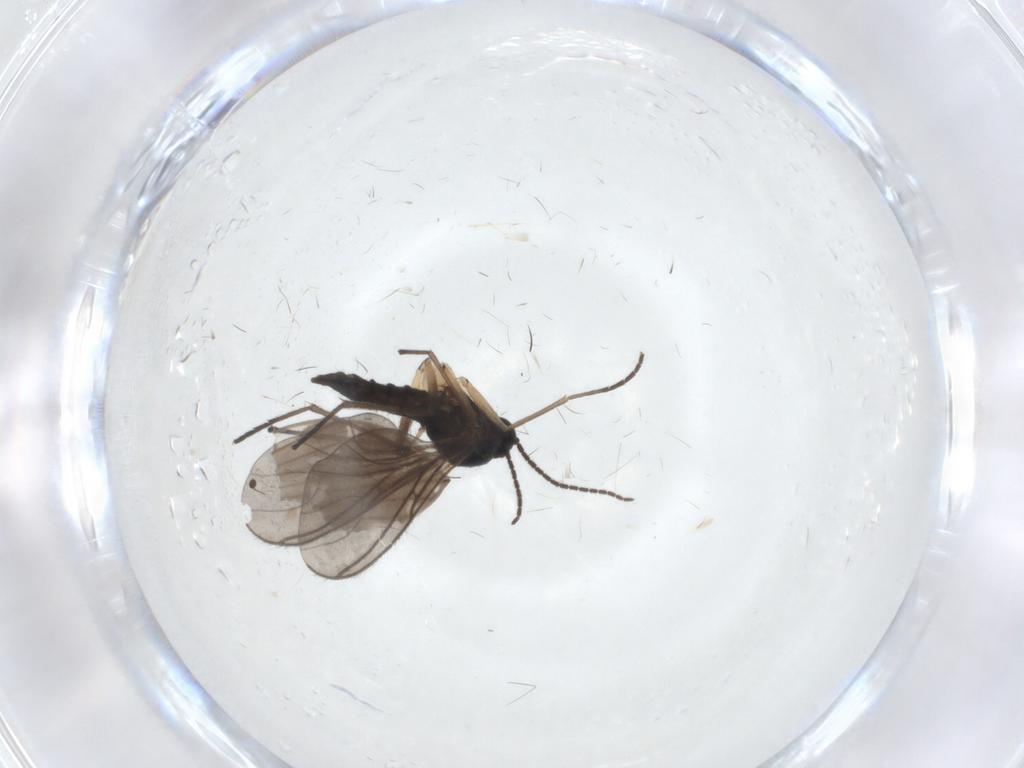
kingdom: Animalia
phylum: Arthropoda
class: Insecta
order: Diptera
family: Sciaridae
